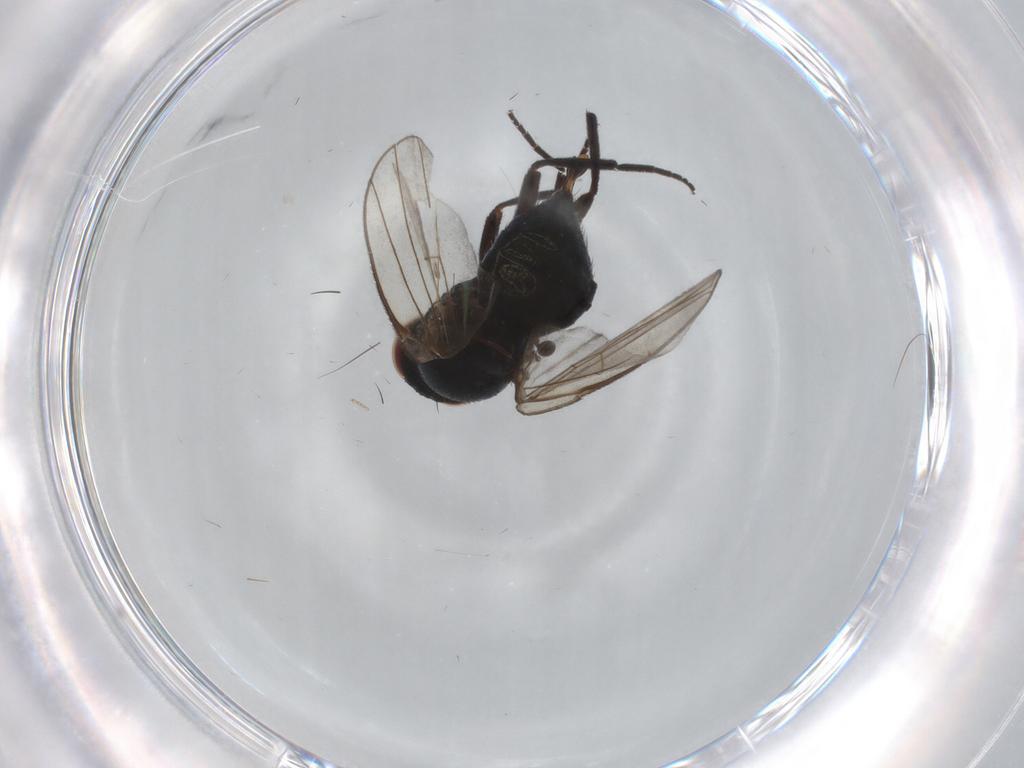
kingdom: Animalia
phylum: Arthropoda
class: Insecta
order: Diptera
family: Agromyzidae
